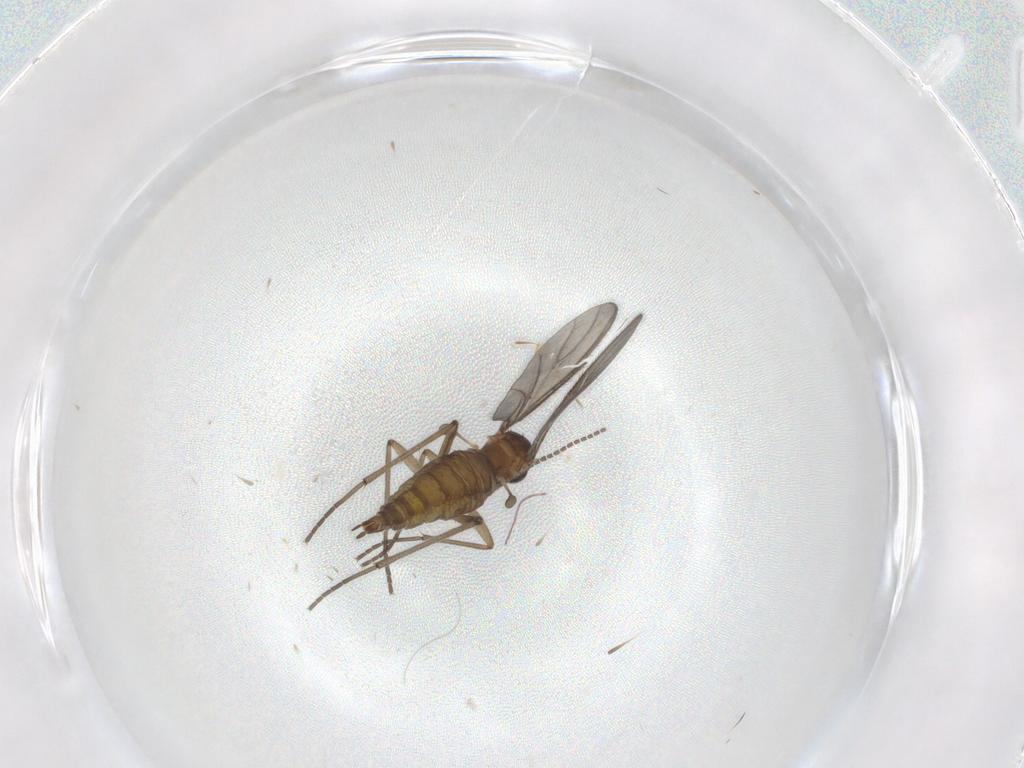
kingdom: Animalia
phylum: Arthropoda
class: Insecta
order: Diptera
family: Sciaridae
